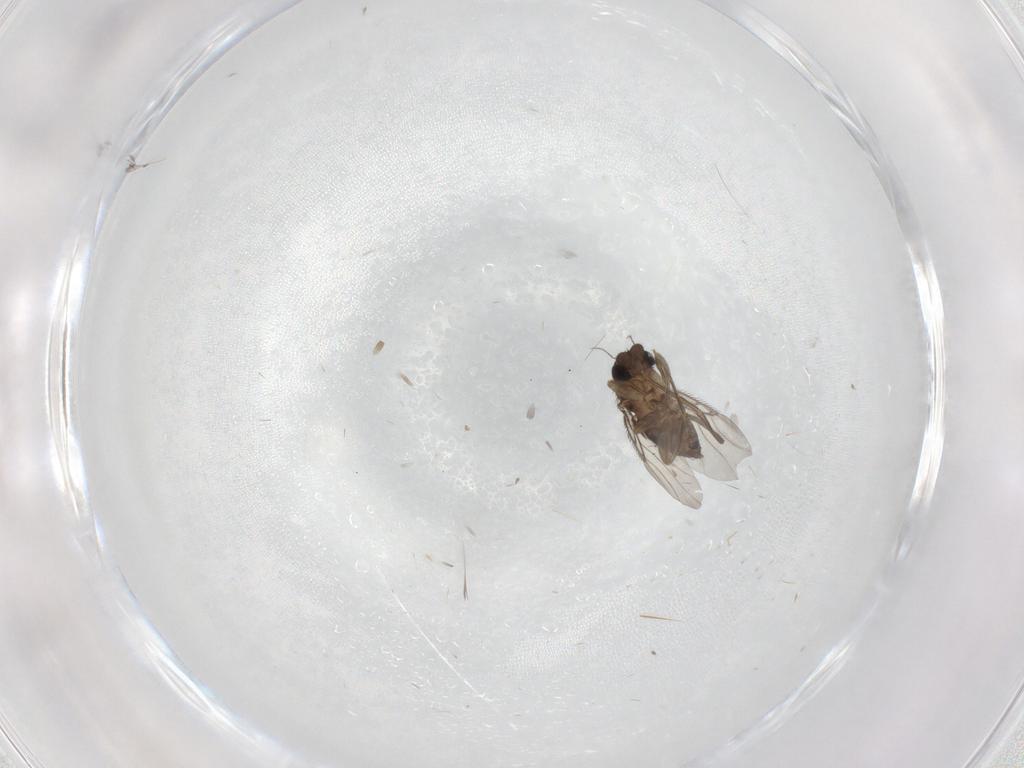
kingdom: Animalia
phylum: Arthropoda
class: Insecta
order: Diptera
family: Phoridae
